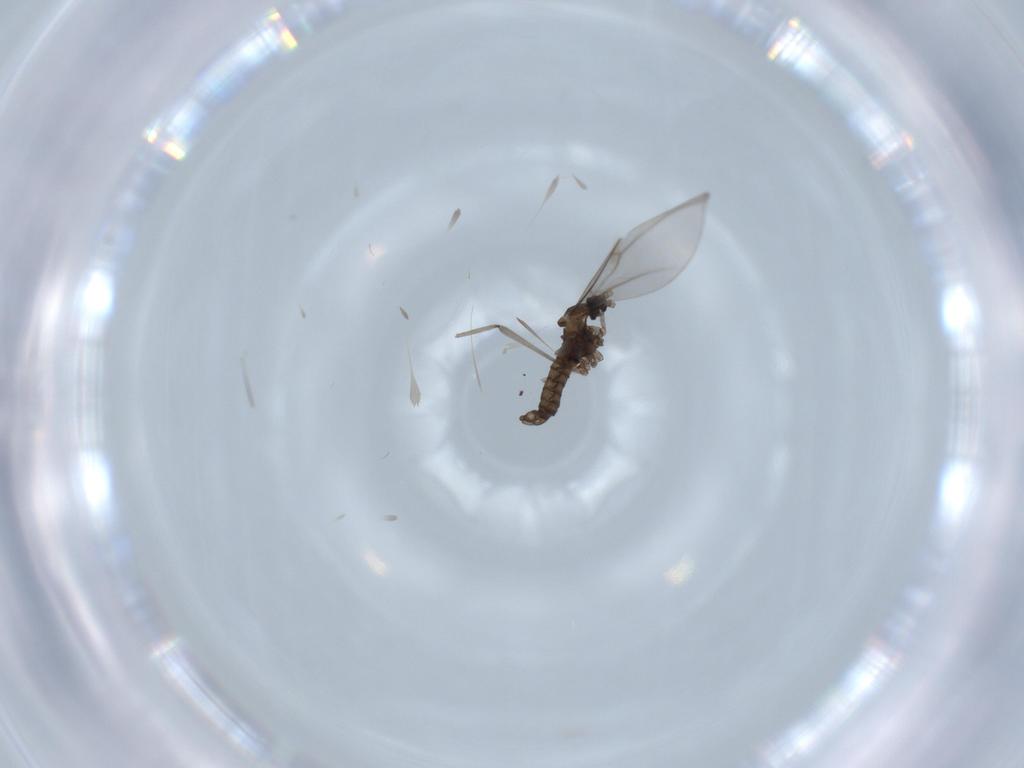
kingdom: Animalia
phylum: Arthropoda
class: Insecta
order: Diptera
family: Cecidomyiidae
